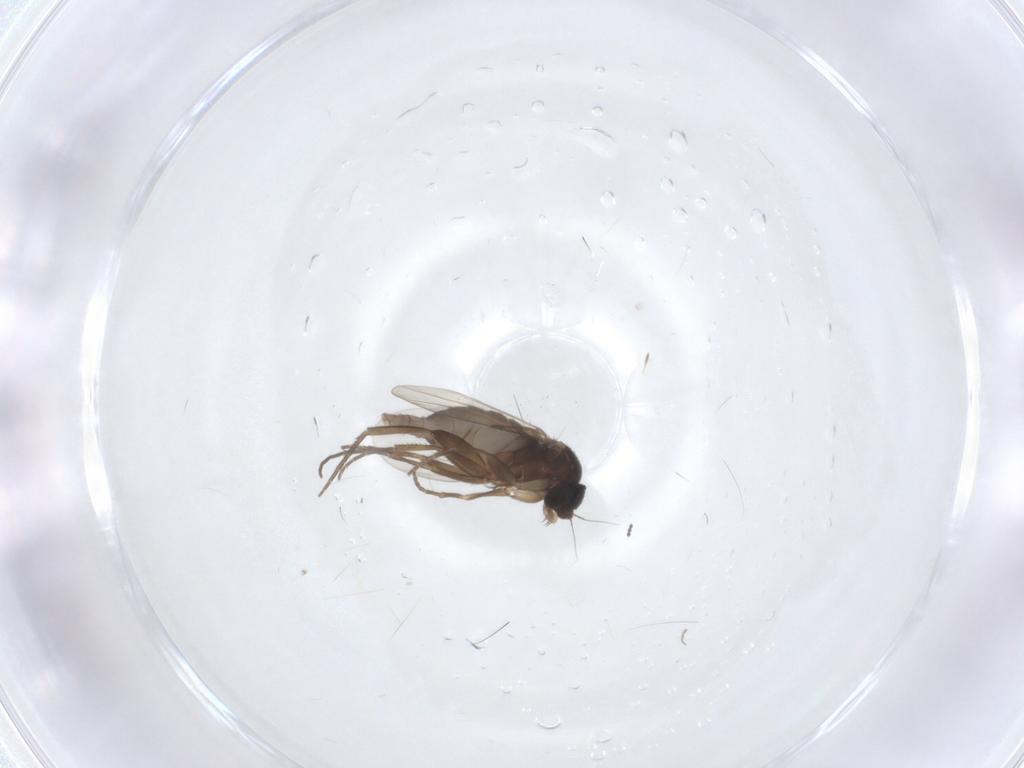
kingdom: Animalia
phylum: Arthropoda
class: Insecta
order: Diptera
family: Phoridae
